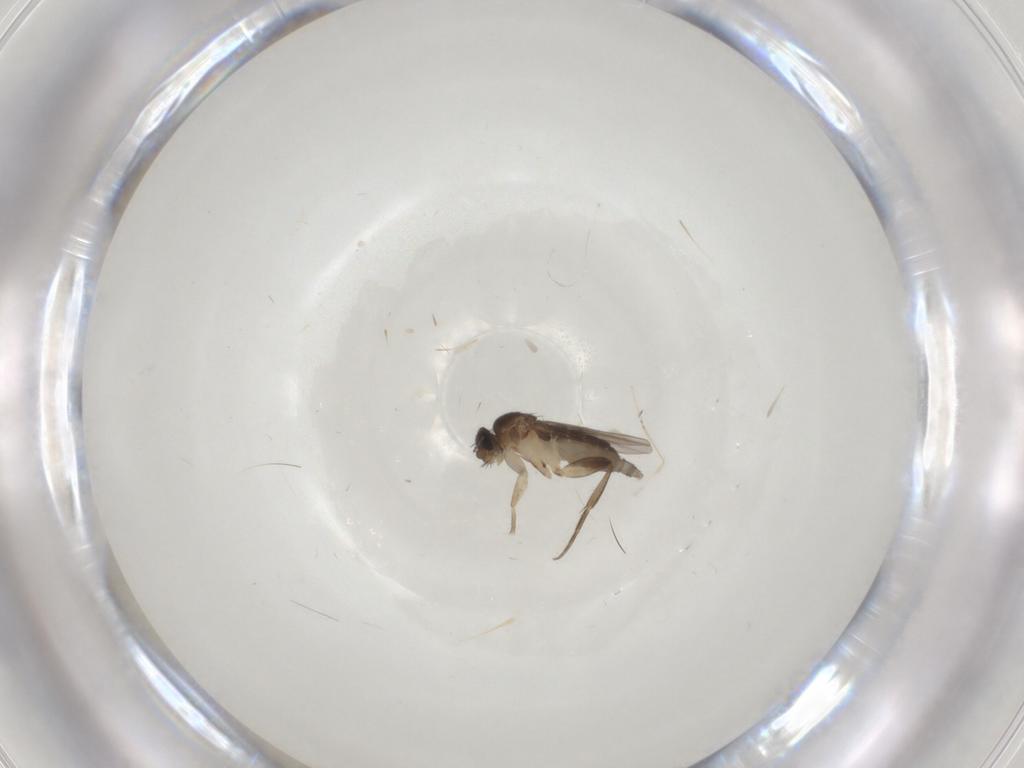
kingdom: Animalia
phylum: Arthropoda
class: Insecta
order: Diptera
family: Phoridae
